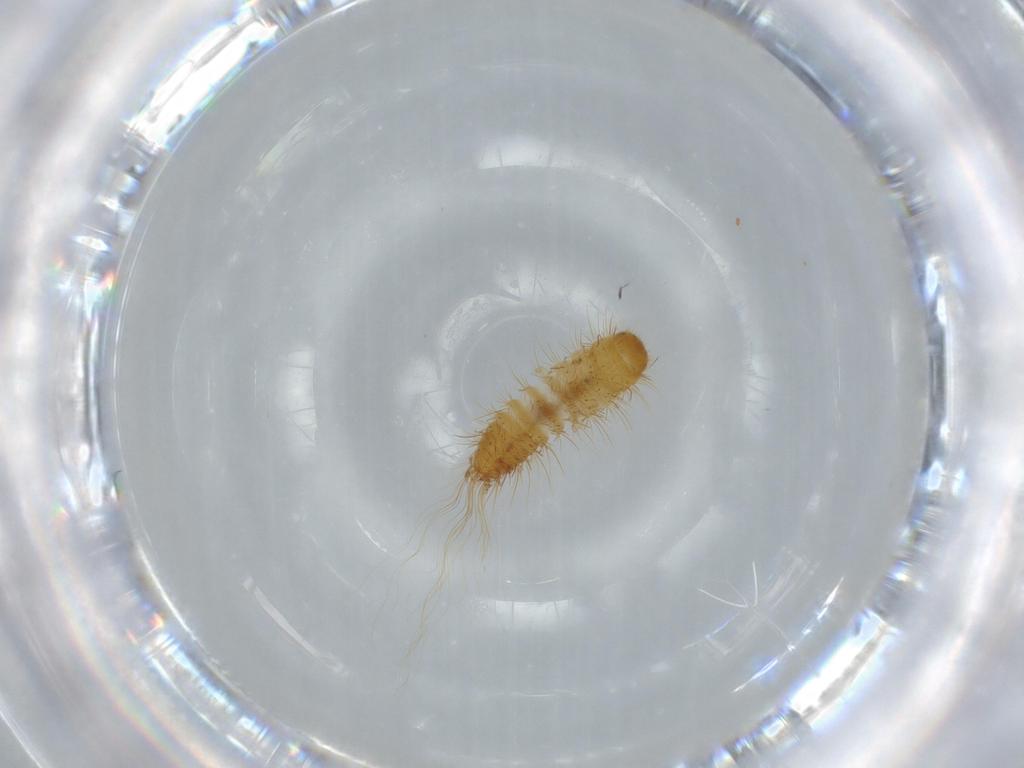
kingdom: Animalia
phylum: Arthropoda
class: Insecta
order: Coleoptera
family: Dermestidae
